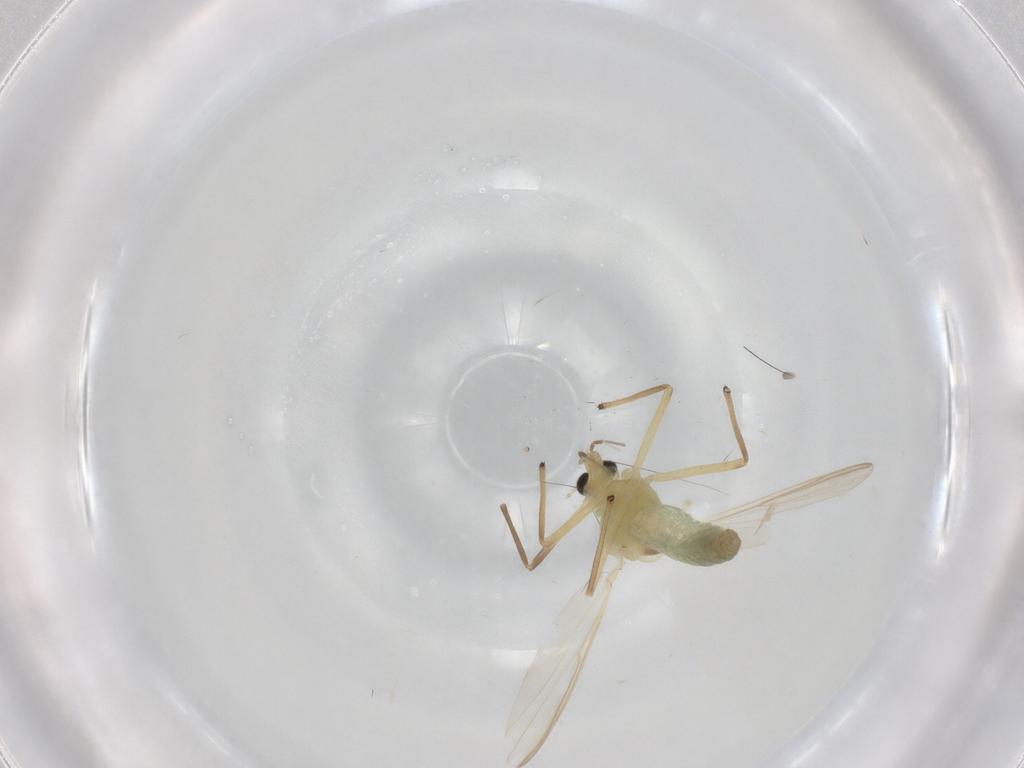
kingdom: Animalia
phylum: Arthropoda
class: Insecta
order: Diptera
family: Chironomidae
